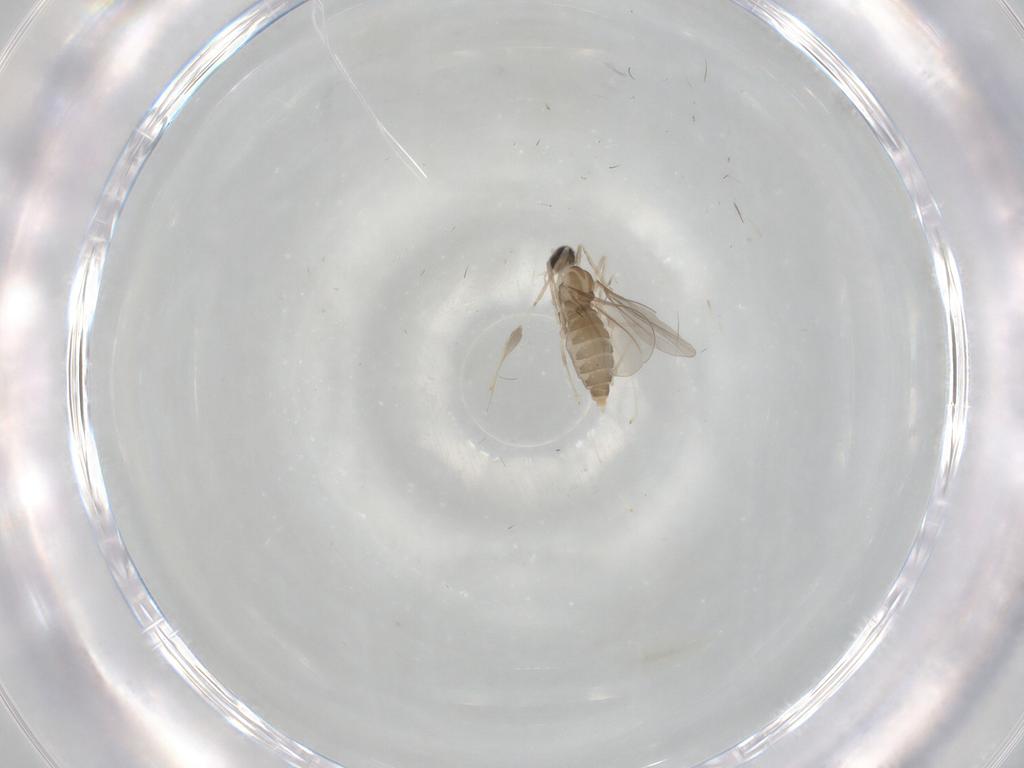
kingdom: Animalia
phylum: Arthropoda
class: Insecta
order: Diptera
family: Cecidomyiidae
